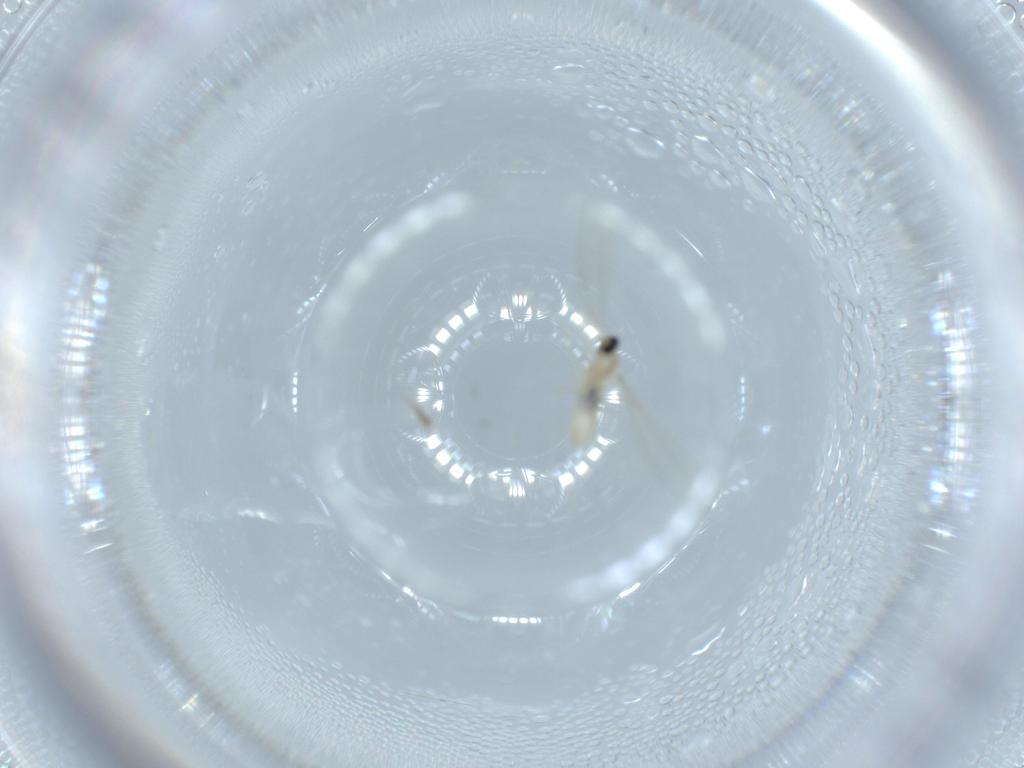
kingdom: Animalia
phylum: Arthropoda
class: Insecta
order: Diptera
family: Cecidomyiidae
